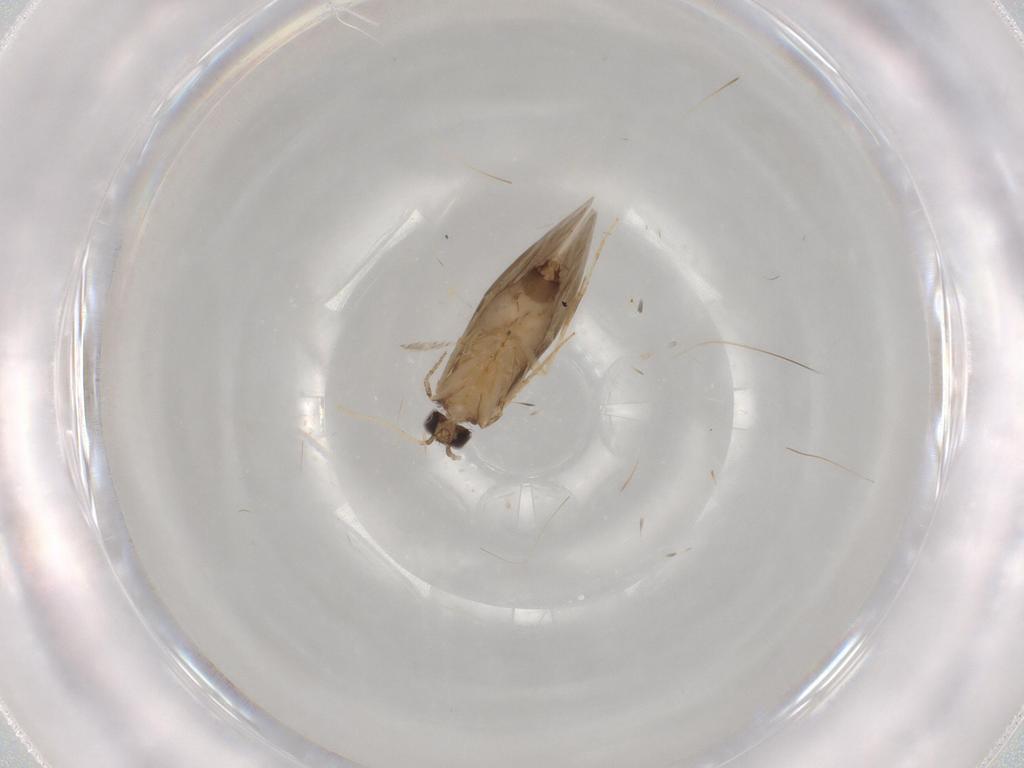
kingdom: Animalia
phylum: Arthropoda
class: Insecta
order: Trichoptera
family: Hydroptilidae
